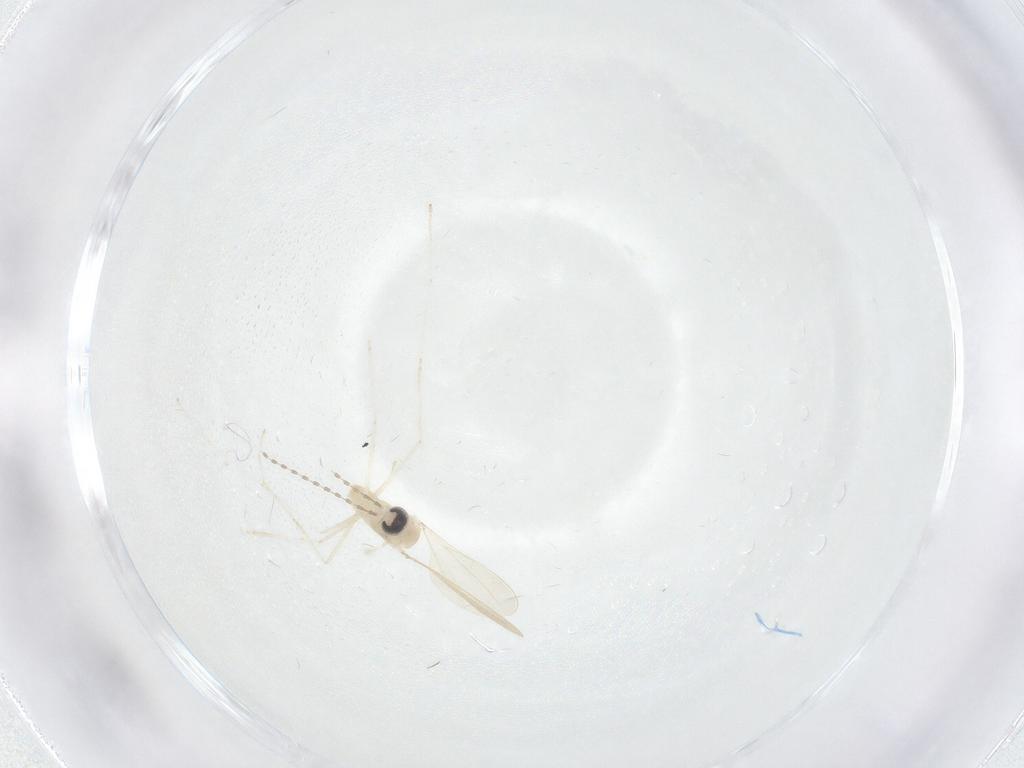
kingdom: Animalia
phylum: Arthropoda
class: Insecta
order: Diptera
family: Cecidomyiidae
